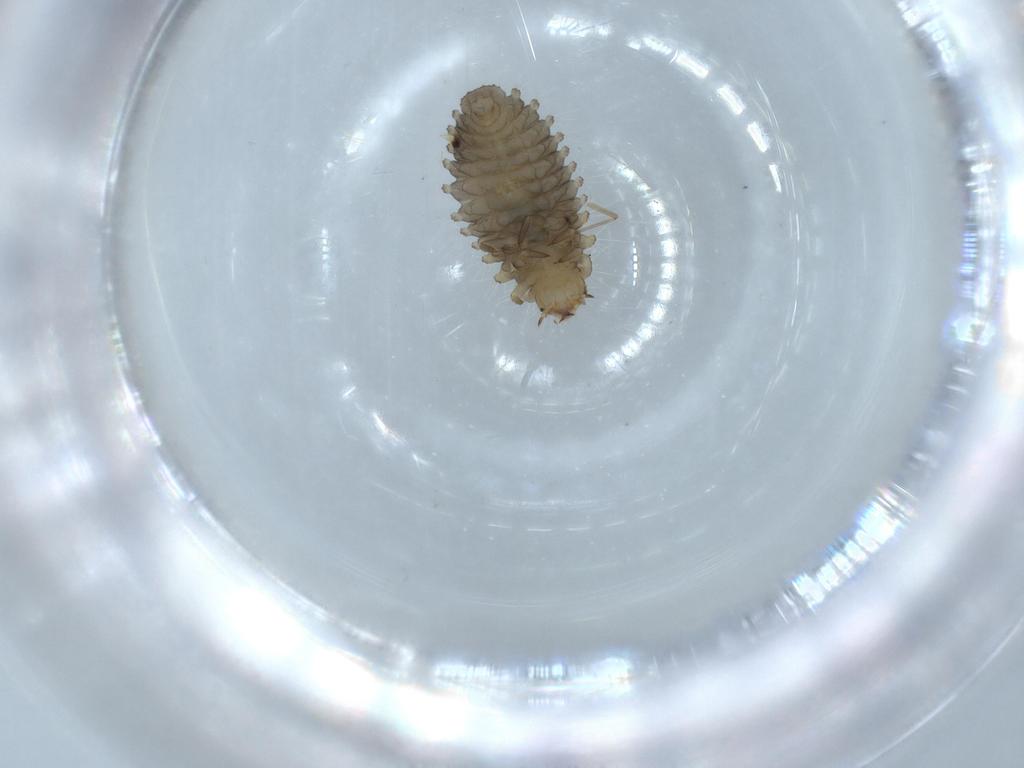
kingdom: Animalia
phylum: Arthropoda
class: Insecta
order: Coleoptera
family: Coccinellidae
